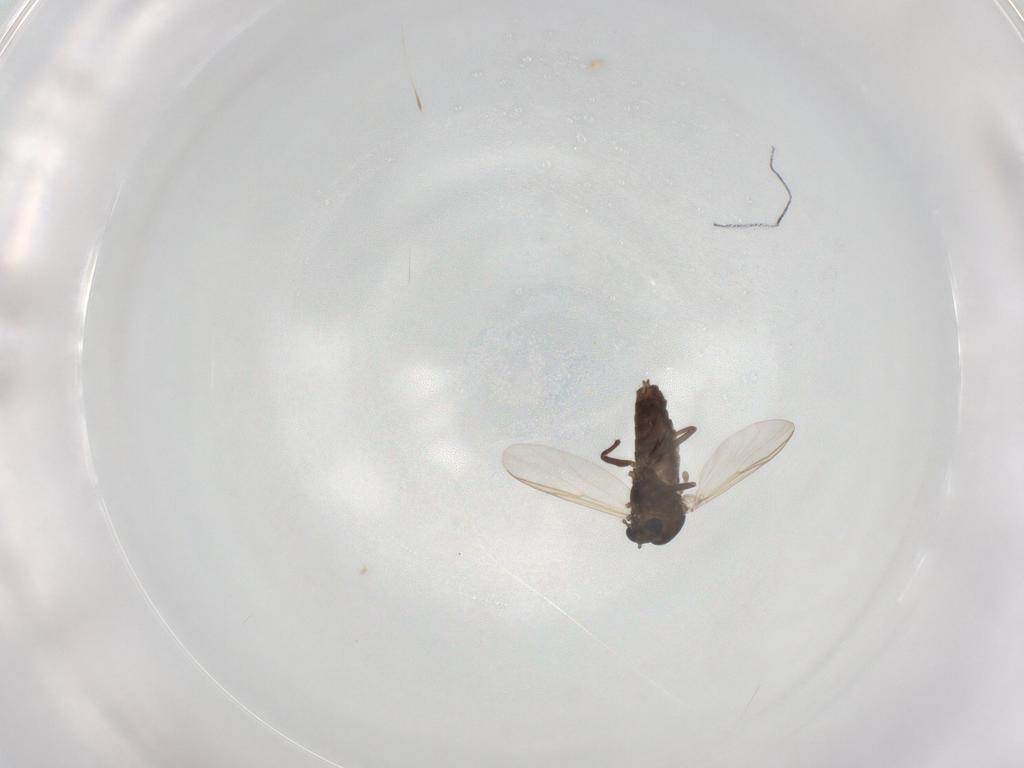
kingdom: Animalia
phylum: Arthropoda
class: Insecta
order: Diptera
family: Chironomidae
